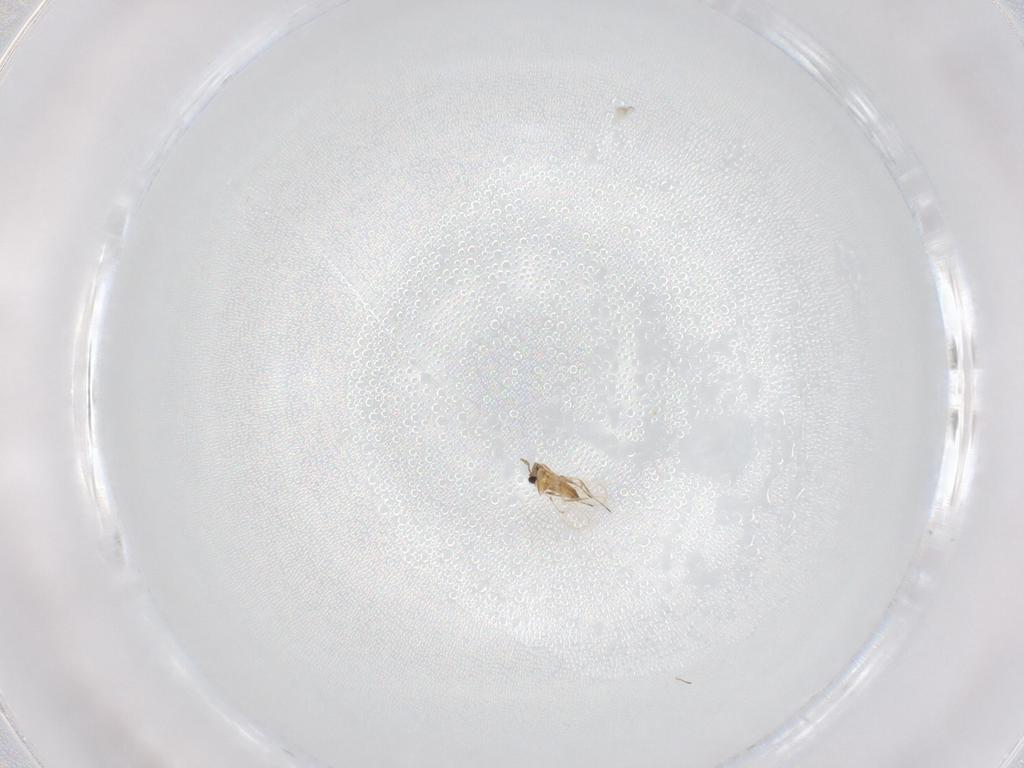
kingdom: Animalia
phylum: Arthropoda
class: Insecta
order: Hymenoptera
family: Trichogrammatidae
